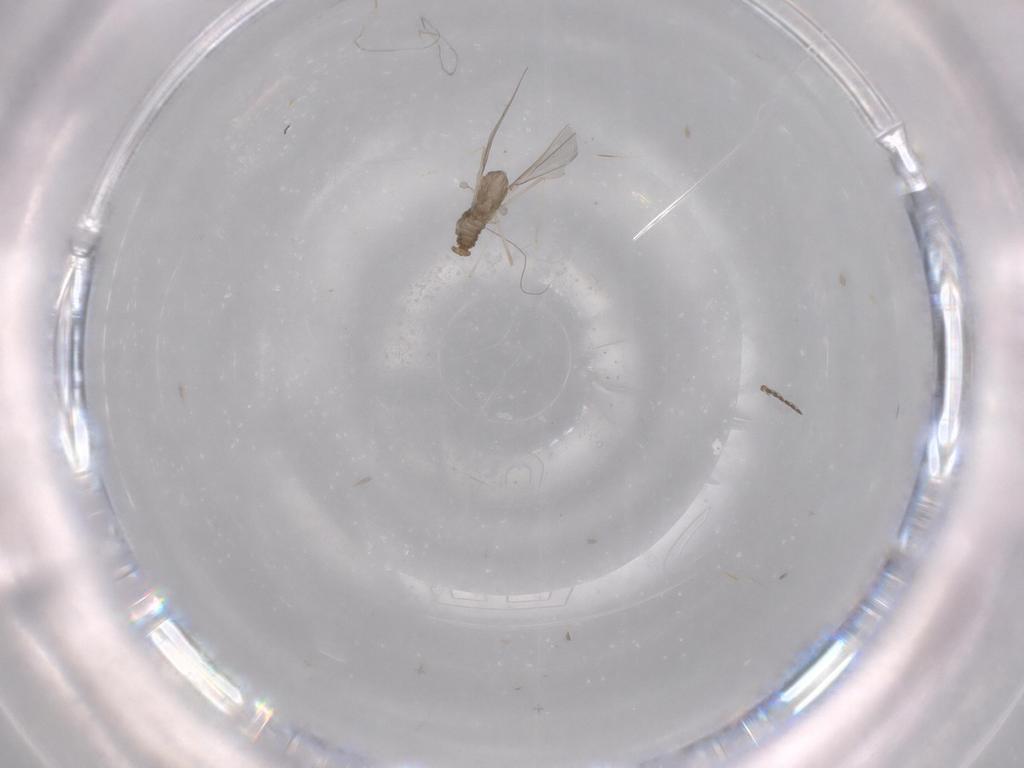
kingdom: Animalia
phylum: Arthropoda
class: Insecta
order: Diptera
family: Cecidomyiidae
